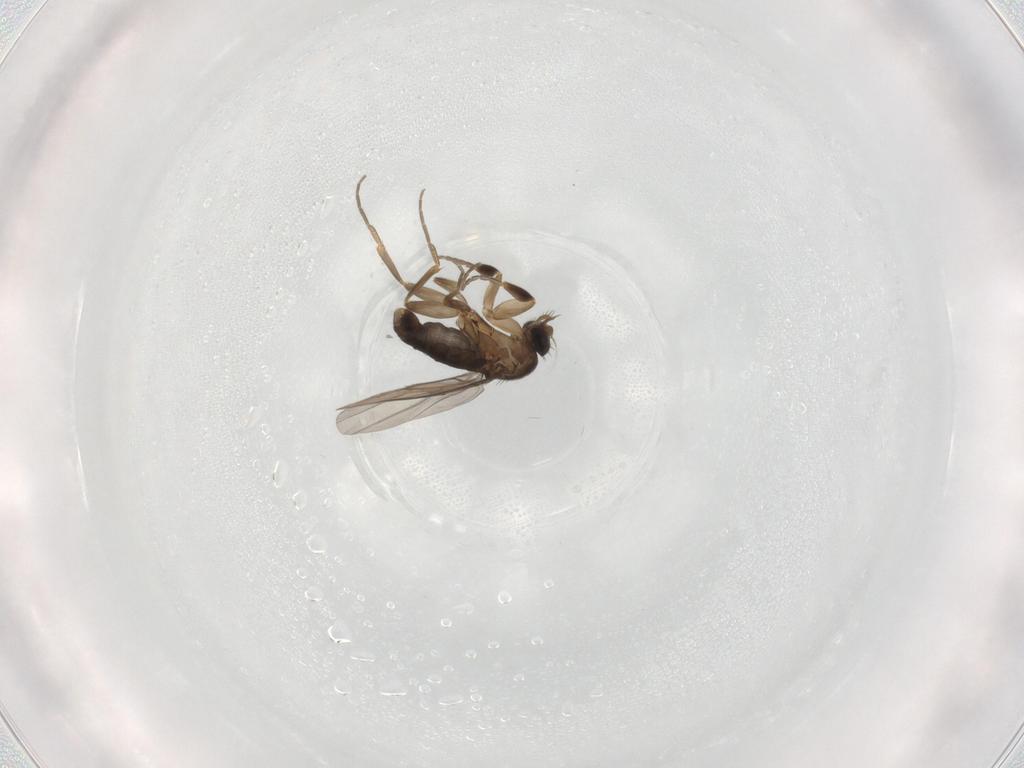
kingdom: Animalia
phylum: Arthropoda
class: Insecta
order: Diptera
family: Phoridae
